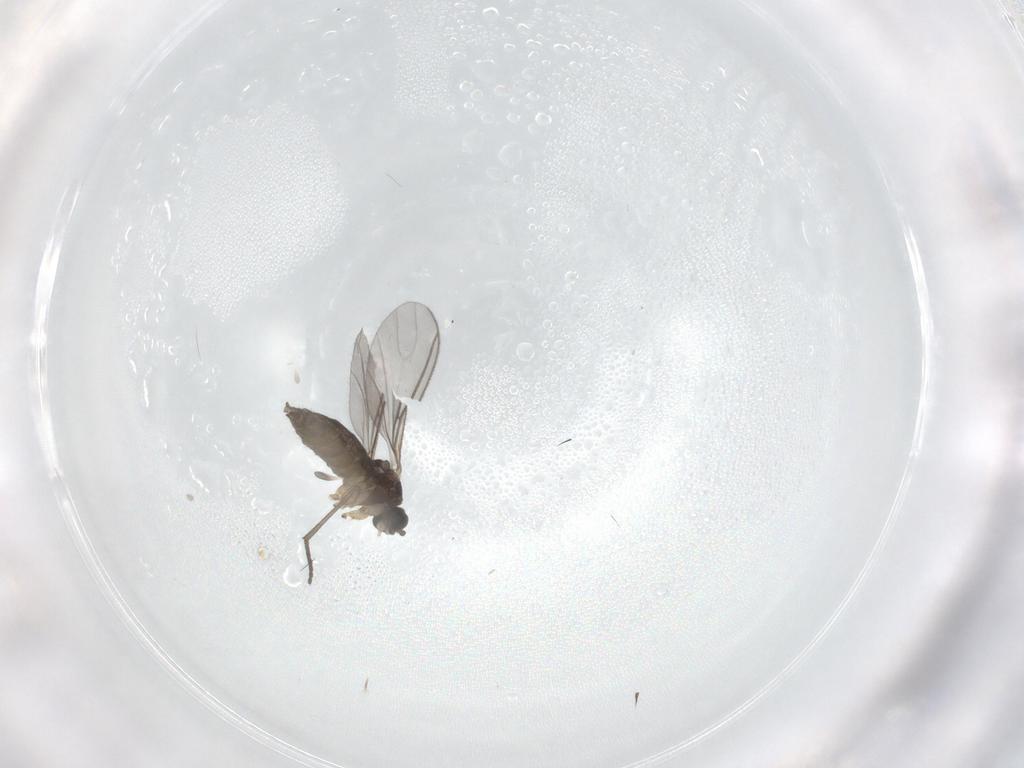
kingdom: Animalia
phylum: Arthropoda
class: Insecta
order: Diptera
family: Sciaridae
